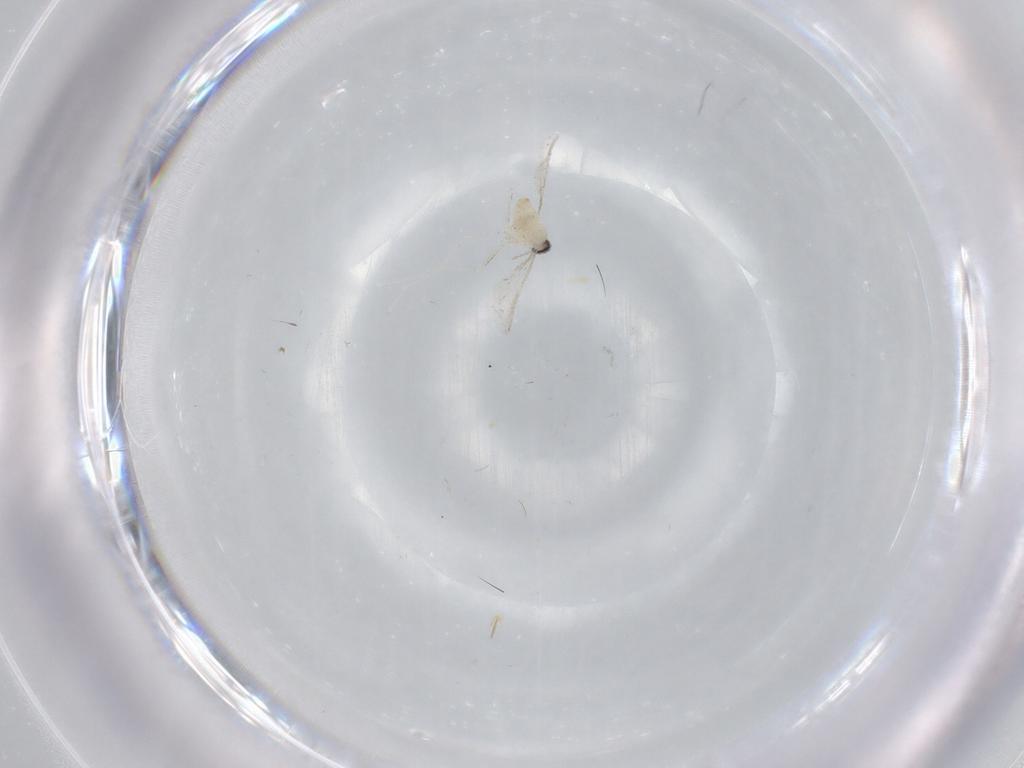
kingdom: Animalia
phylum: Arthropoda
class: Insecta
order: Diptera
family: Cecidomyiidae
